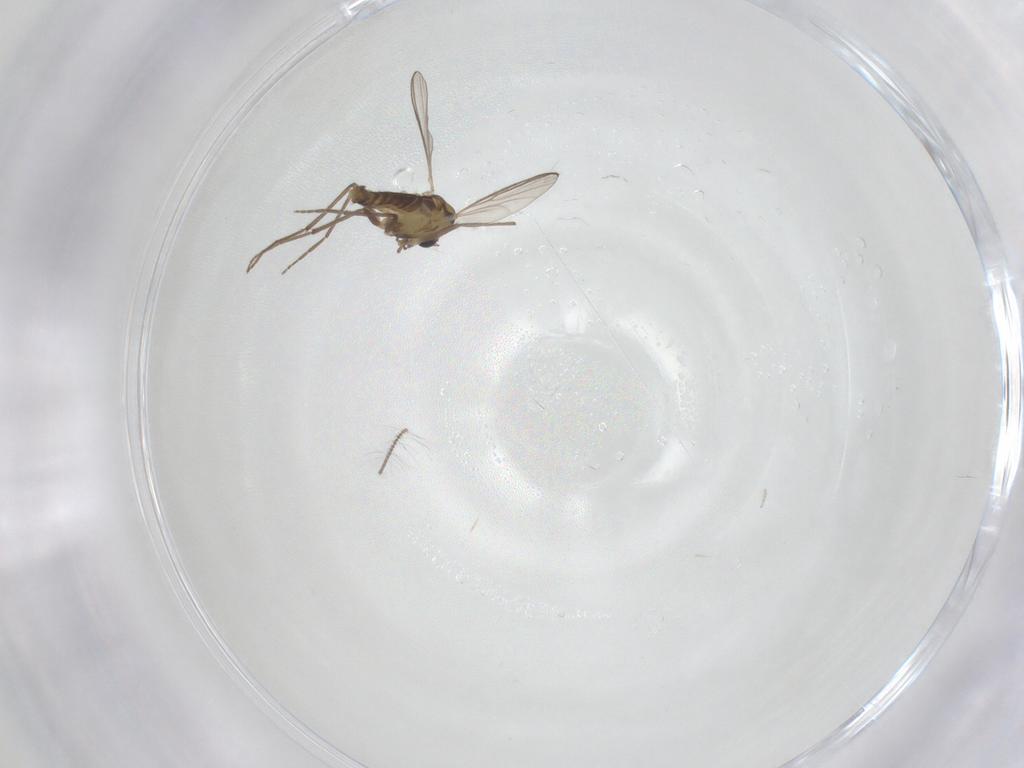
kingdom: Animalia
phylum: Arthropoda
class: Insecta
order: Diptera
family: Chironomidae
